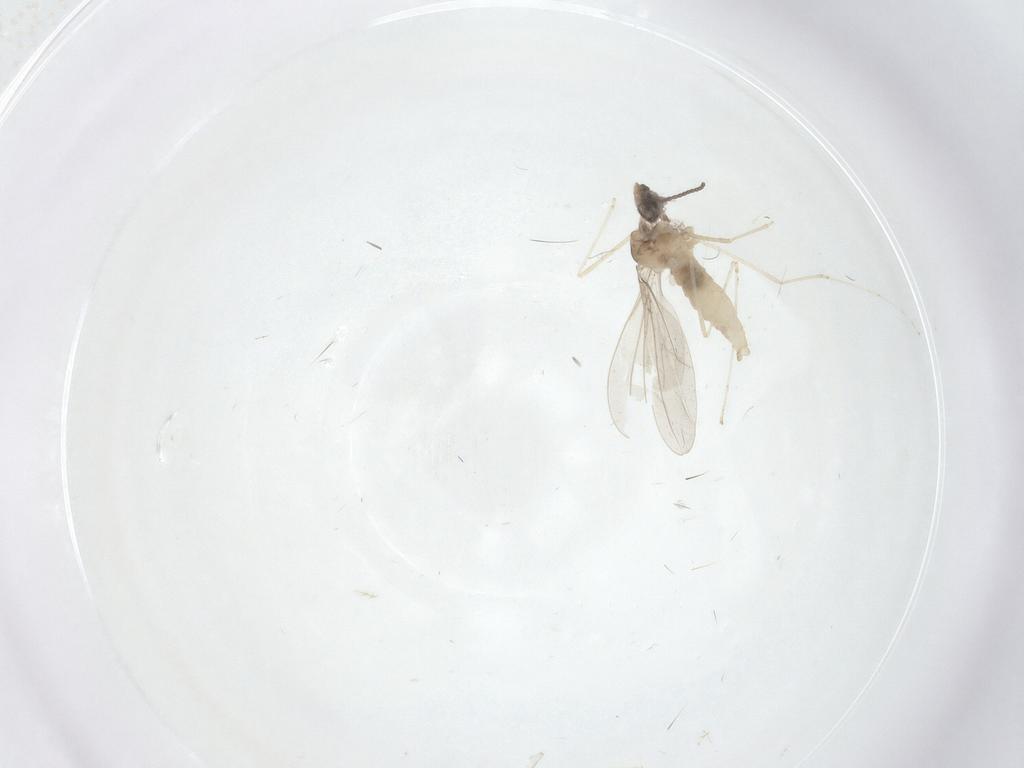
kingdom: Animalia
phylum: Arthropoda
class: Insecta
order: Diptera
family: Cecidomyiidae
